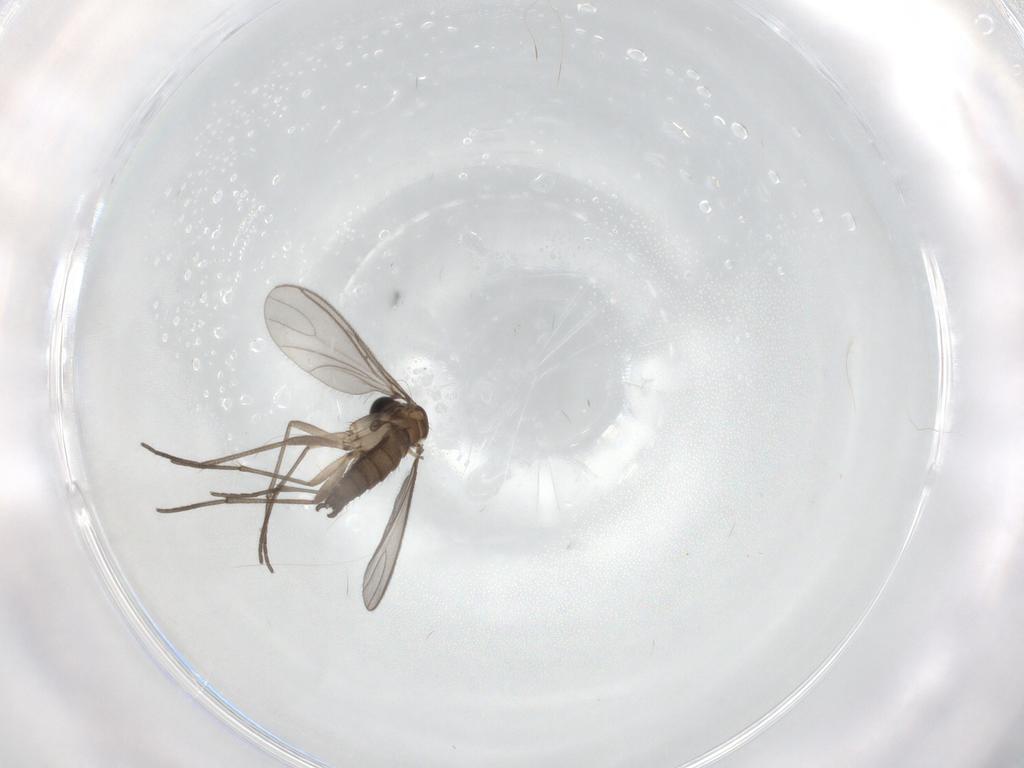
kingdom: Animalia
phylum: Arthropoda
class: Insecta
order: Diptera
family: Sciaridae
